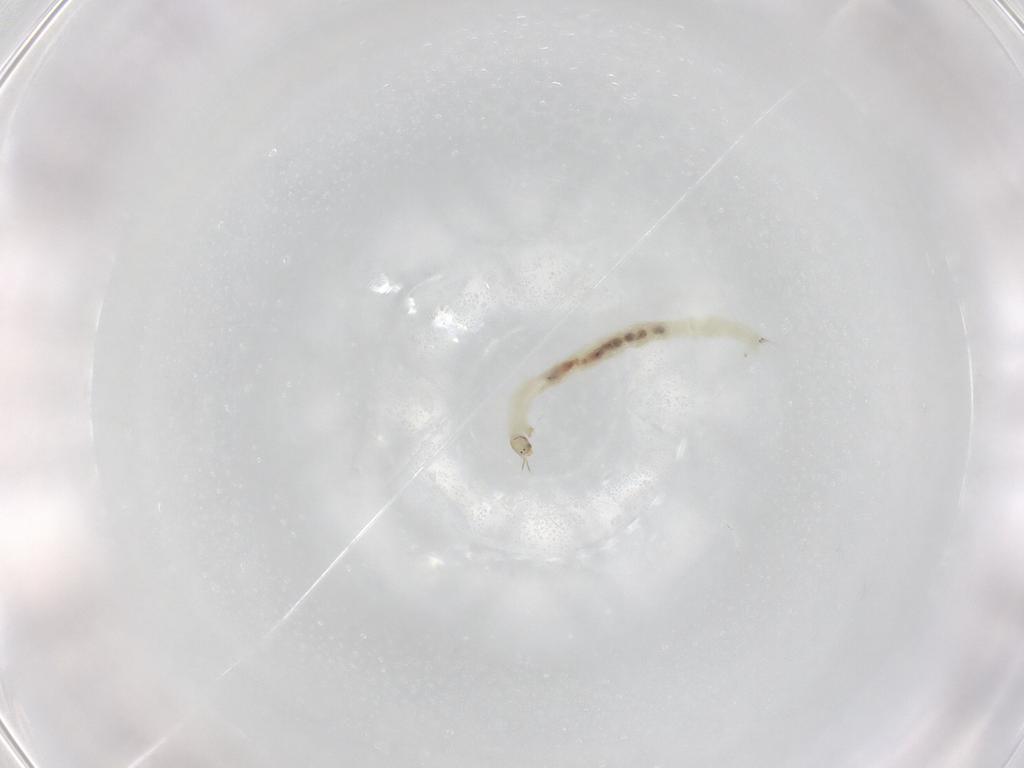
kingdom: Animalia
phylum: Arthropoda
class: Insecta
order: Diptera
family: Chironomidae
